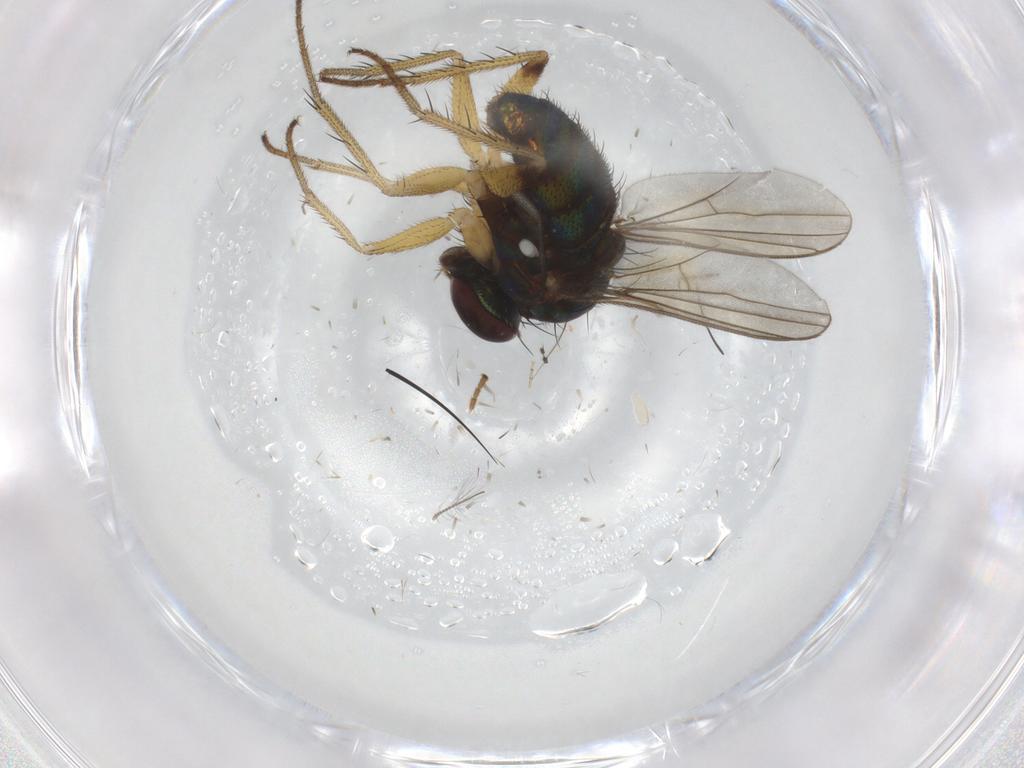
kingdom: Animalia
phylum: Arthropoda
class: Insecta
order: Diptera
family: Dolichopodidae
